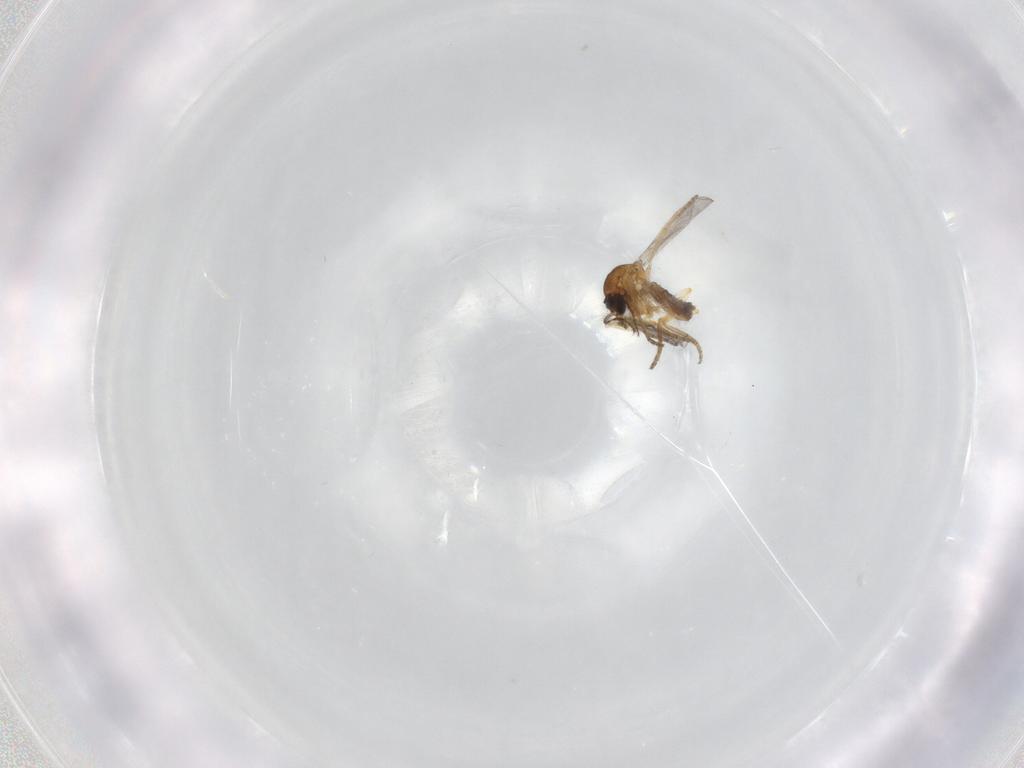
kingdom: Animalia
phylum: Arthropoda
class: Insecta
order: Diptera
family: Ceratopogonidae
